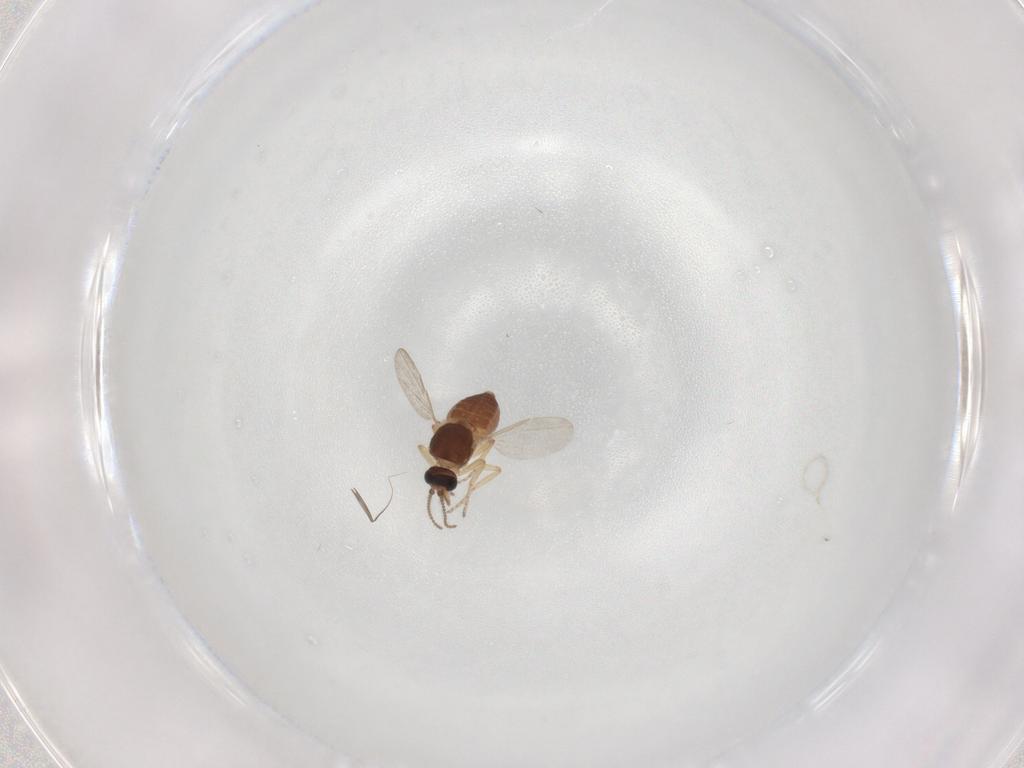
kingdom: Animalia
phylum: Arthropoda
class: Insecta
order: Diptera
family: Ceratopogonidae
